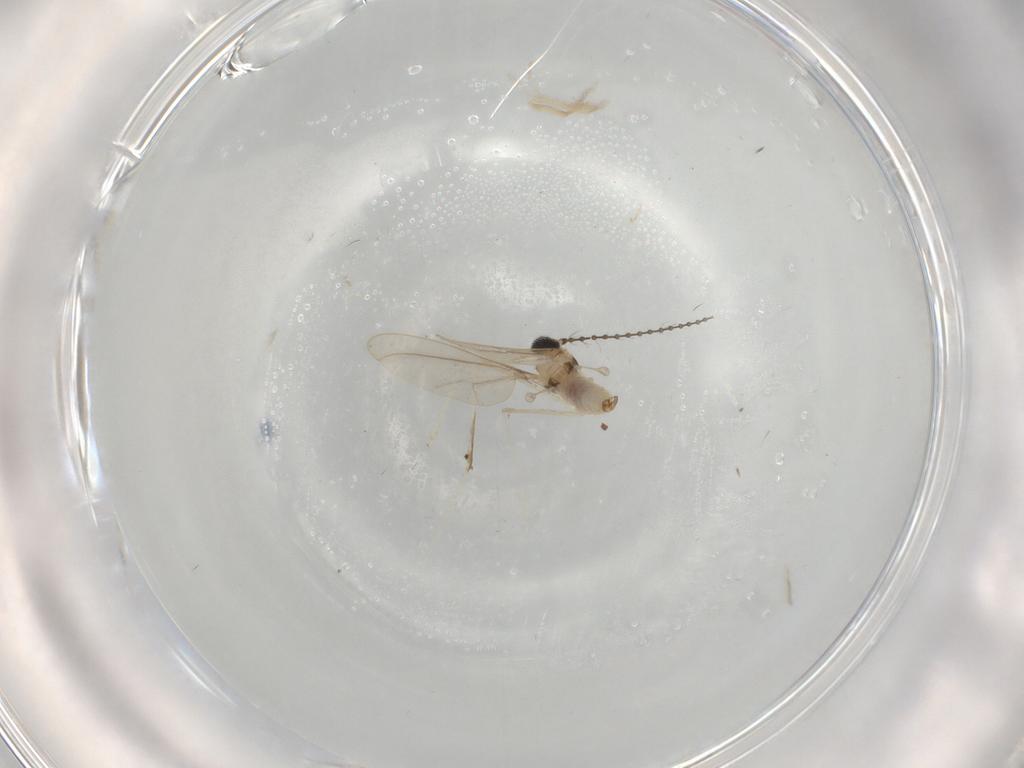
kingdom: Animalia
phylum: Arthropoda
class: Insecta
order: Diptera
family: Cecidomyiidae
